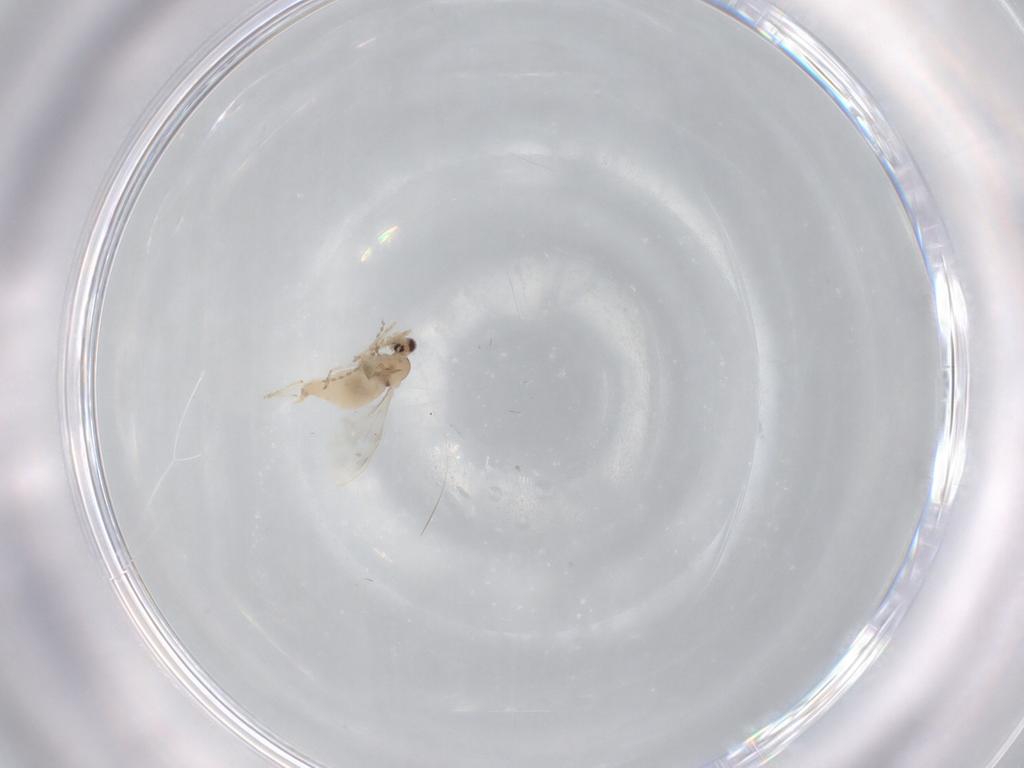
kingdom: Animalia
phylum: Arthropoda
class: Insecta
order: Diptera
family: Cecidomyiidae
